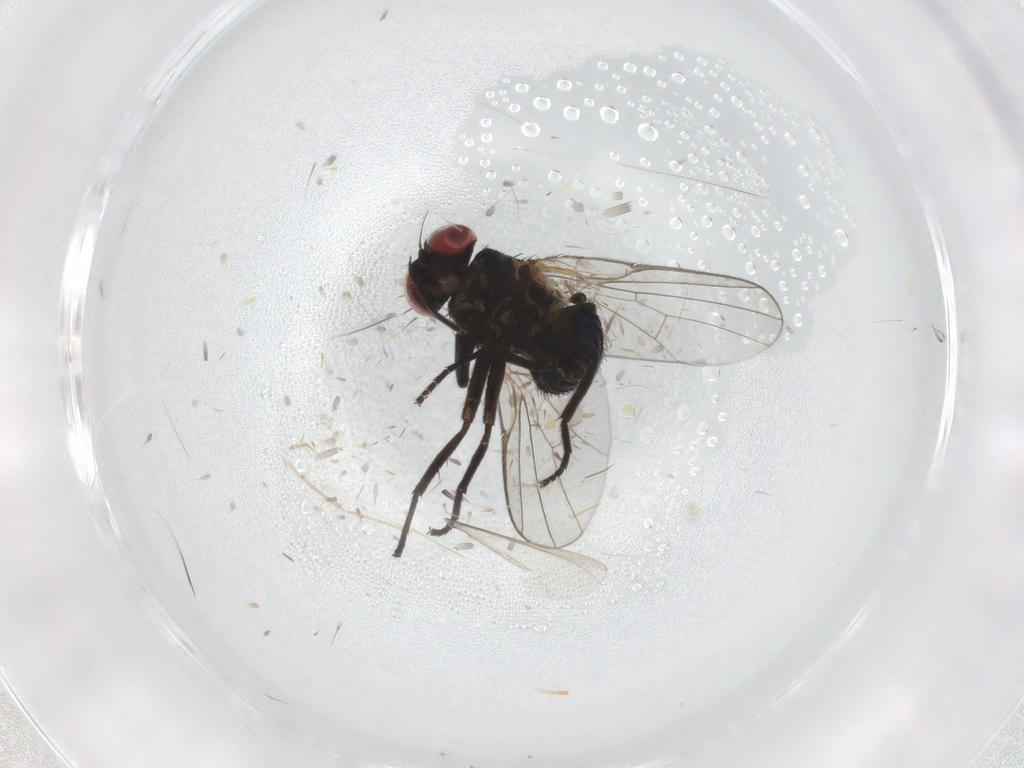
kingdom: Animalia
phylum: Arthropoda
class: Insecta
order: Diptera
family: Agromyzidae
